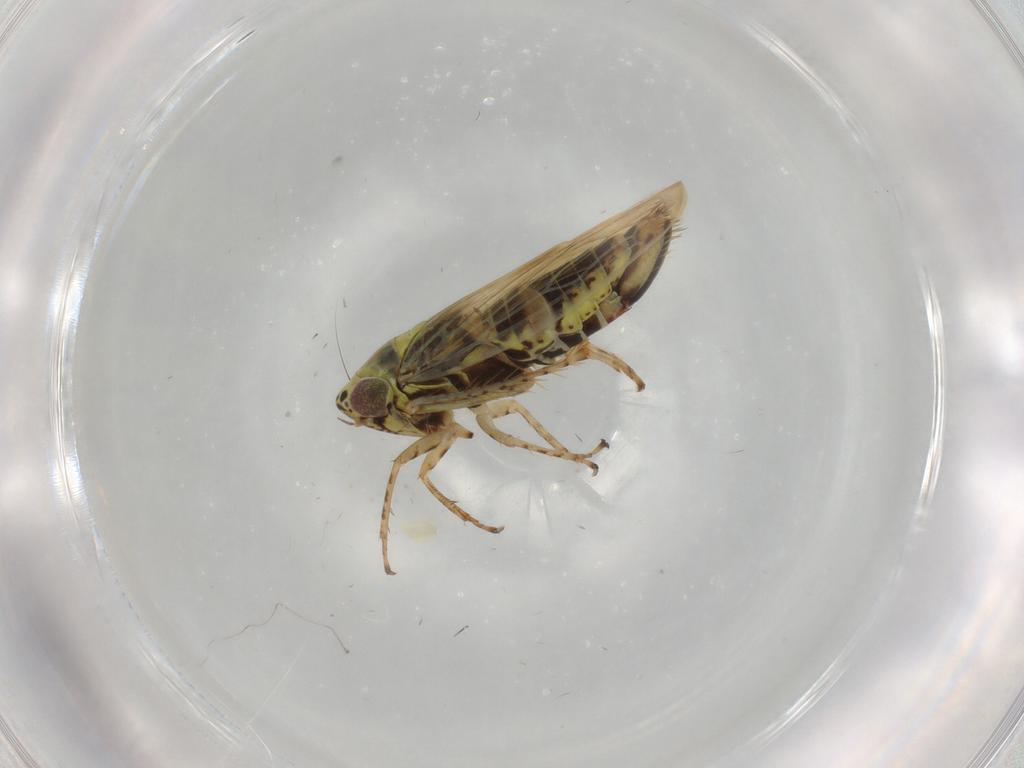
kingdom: Animalia
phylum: Arthropoda
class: Insecta
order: Hemiptera
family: Cicadellidae
